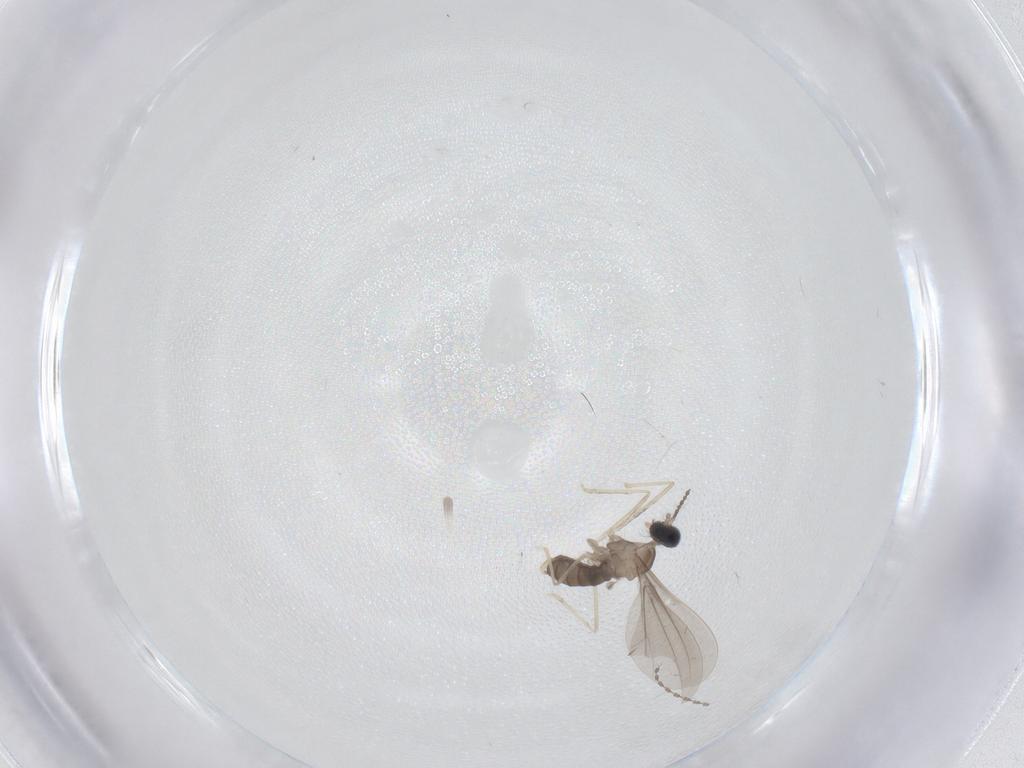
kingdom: Animalia
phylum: Arthropoda
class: Insecta
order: Diptera
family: Cecidomyiidae
